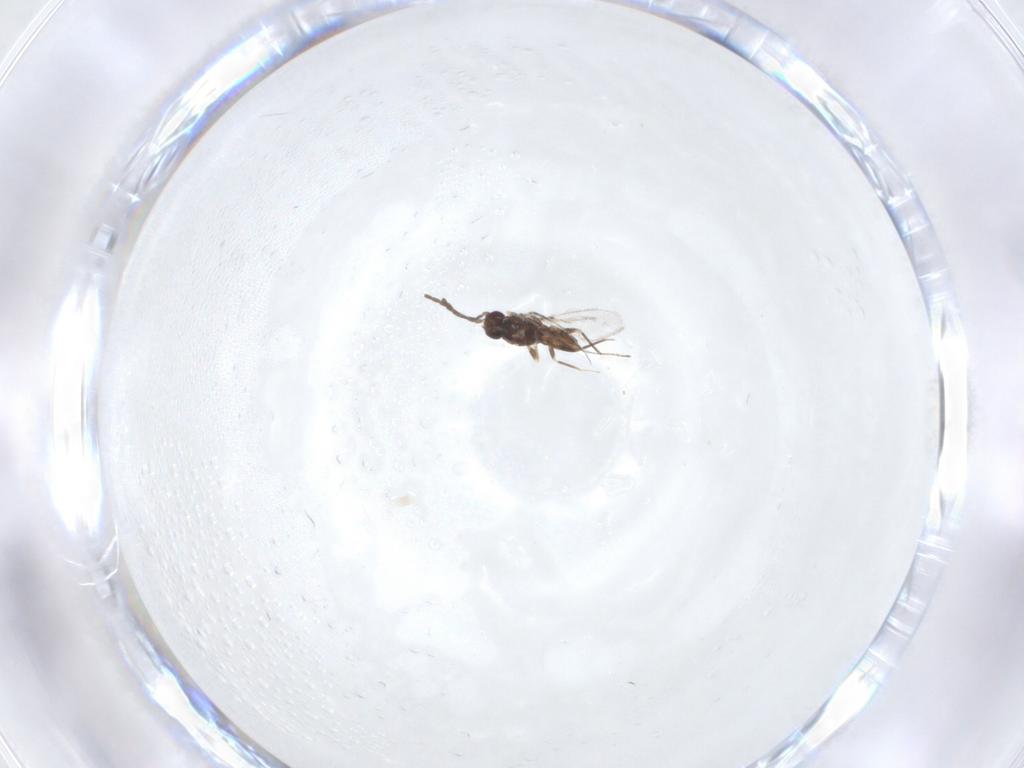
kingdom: Animalia
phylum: Arthropoda
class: Insecta
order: Hymenoptera
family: Mymaridae
